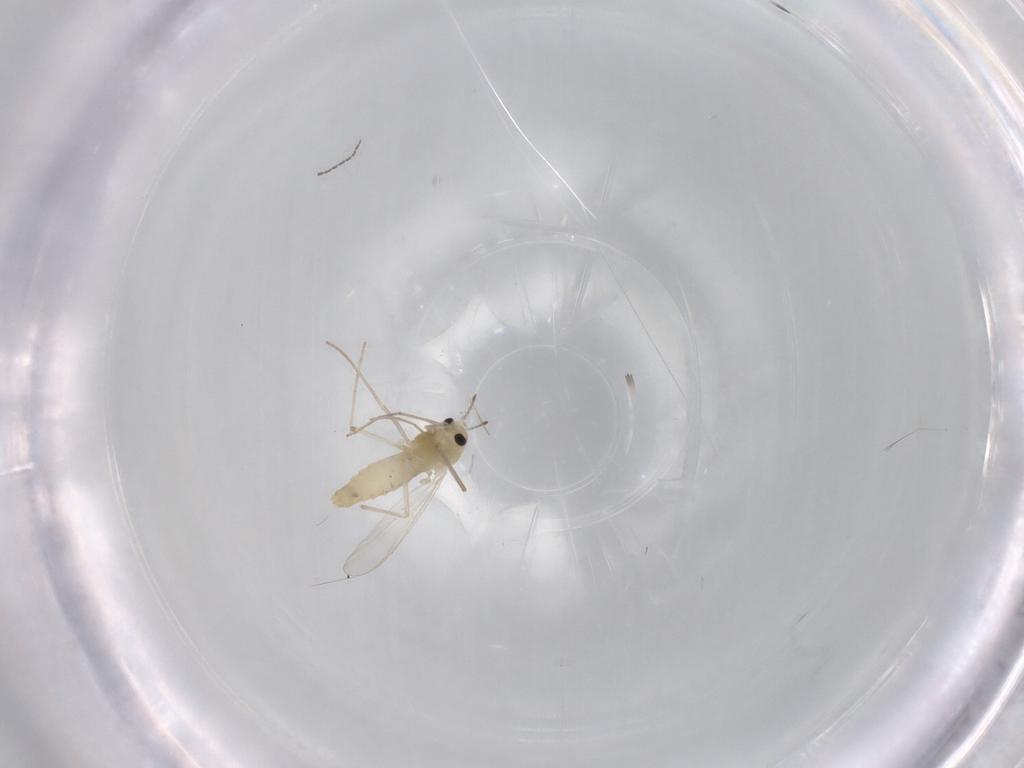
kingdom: Animalia
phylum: Arthropoda
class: Insecta
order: Diptera
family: Chironomidae
